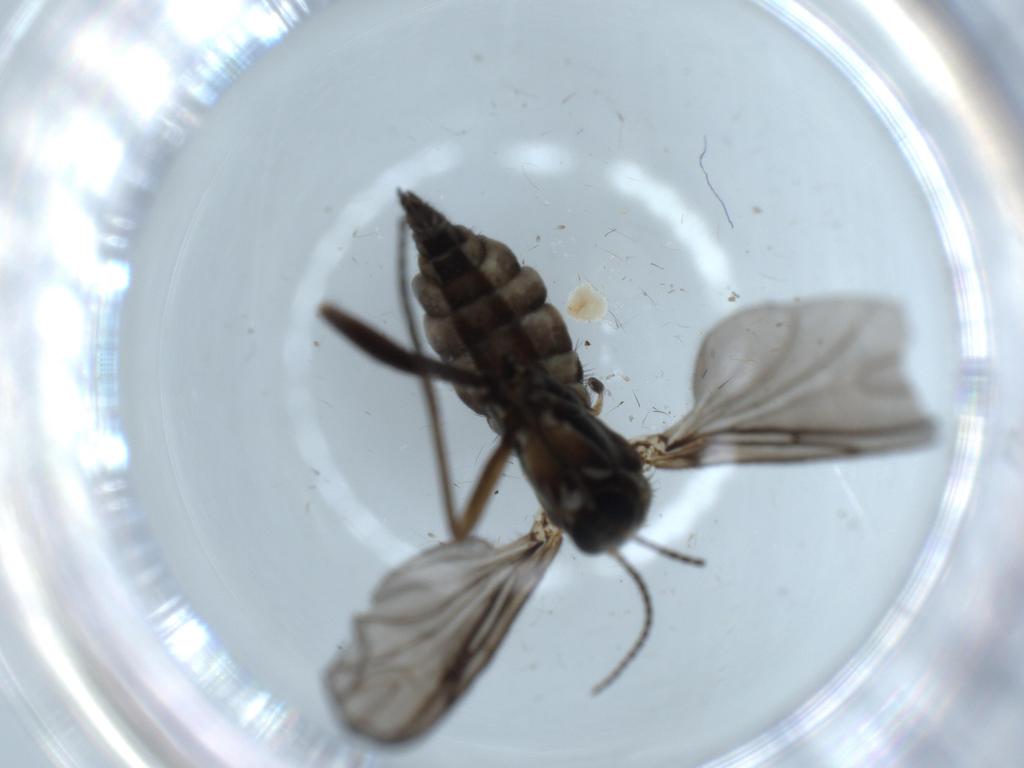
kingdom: Animalia
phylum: Arthropoda
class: Insecta
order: Diptera
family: Sciaridae
